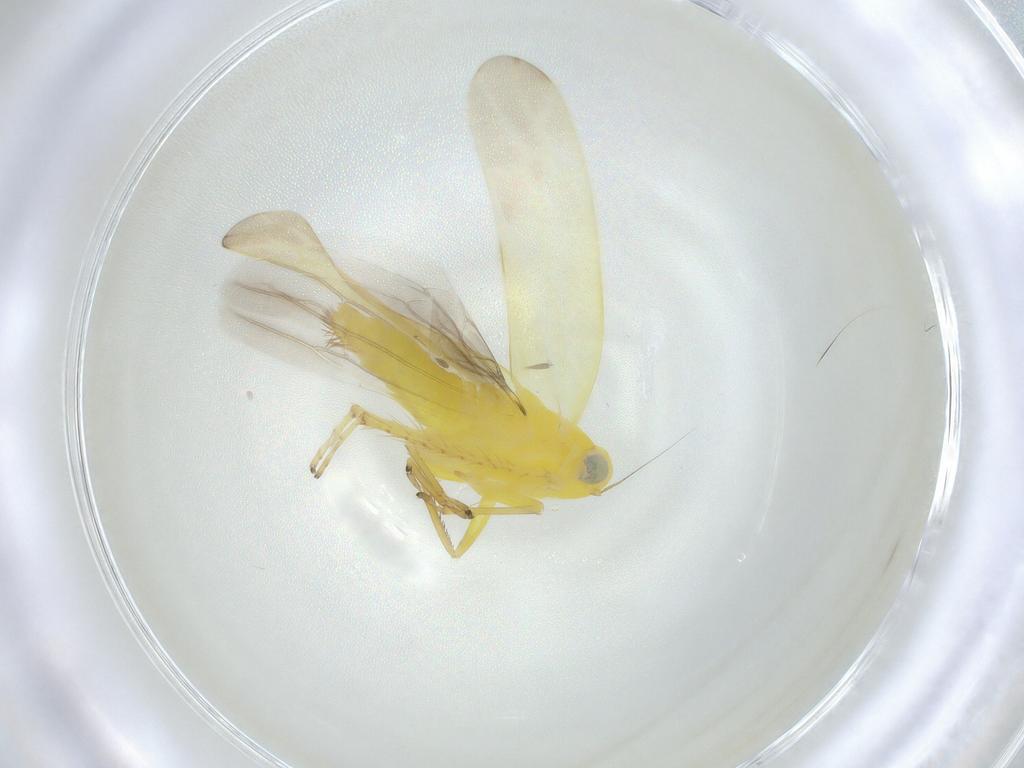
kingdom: Animalia
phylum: Arthropoda
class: Insecta
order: Hemiptera
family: Cicadellidae
